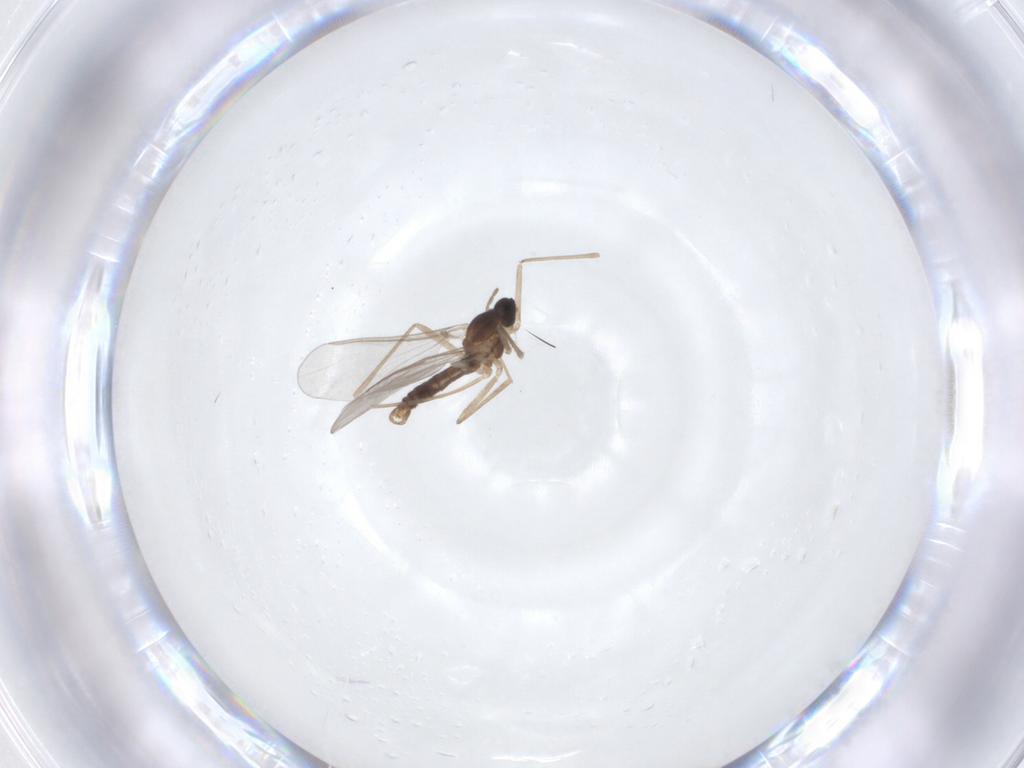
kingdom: Animalia
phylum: Arthropoda
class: Insecta
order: Diptera
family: Cecidomyiidae
